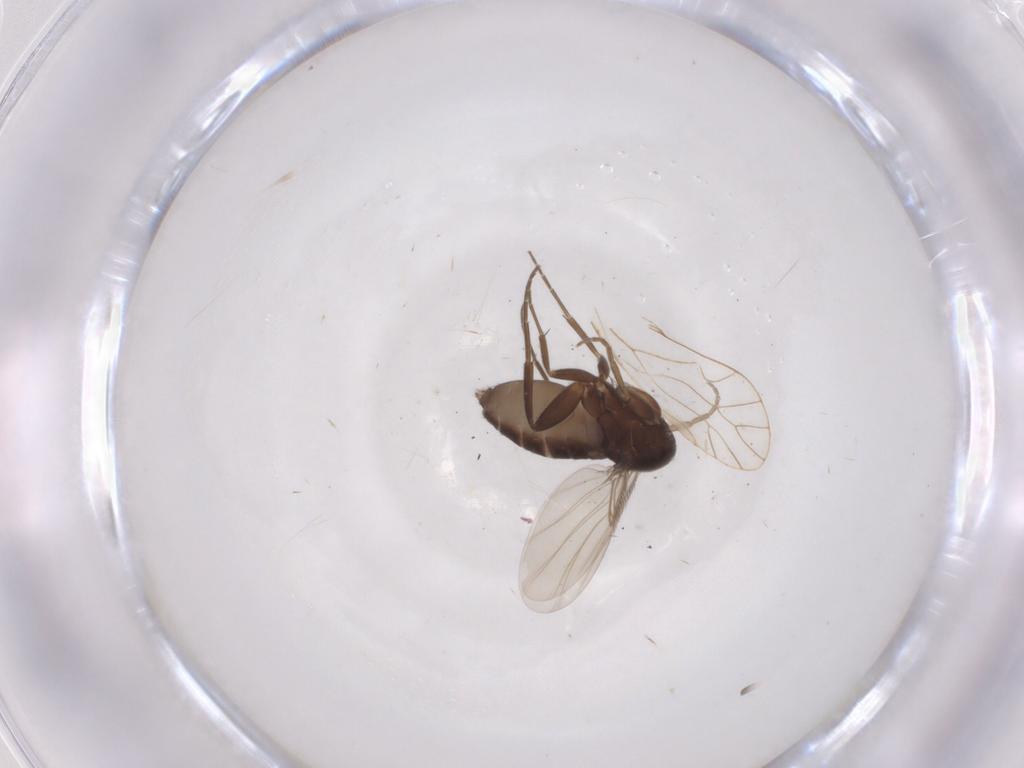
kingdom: Animalia
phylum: Arthropoda
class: Insecta
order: Diptera
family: Phoridae
